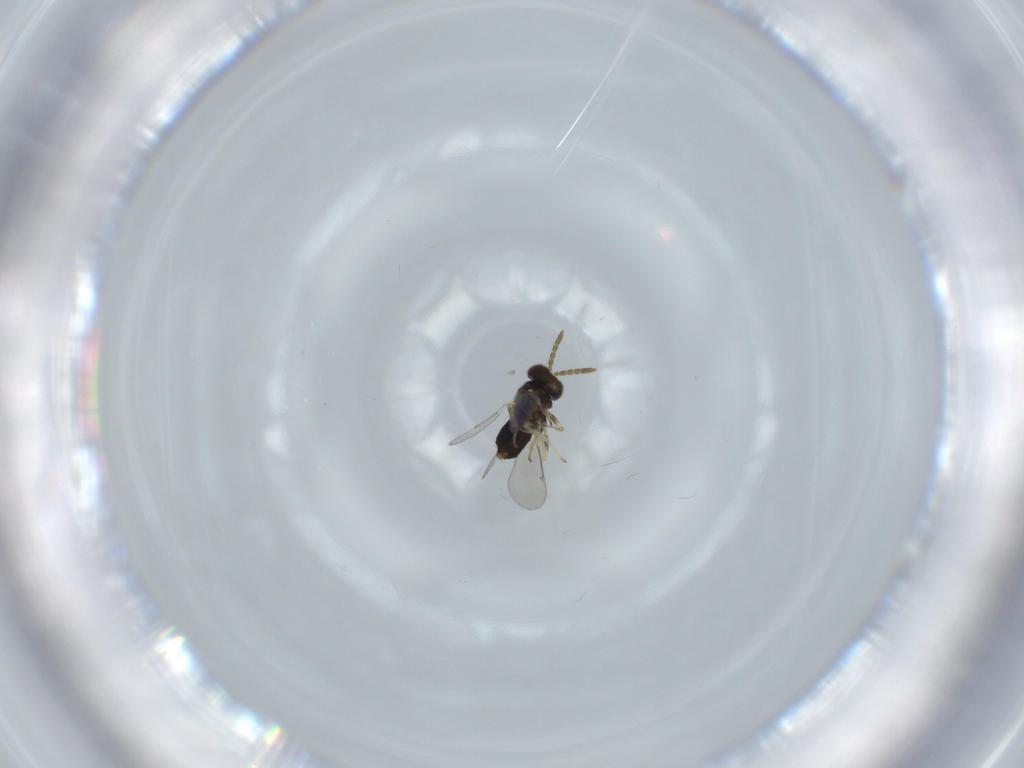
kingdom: Animalia
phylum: Arthropoda
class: Insecta
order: Hymenoptera
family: Aphelinidae
